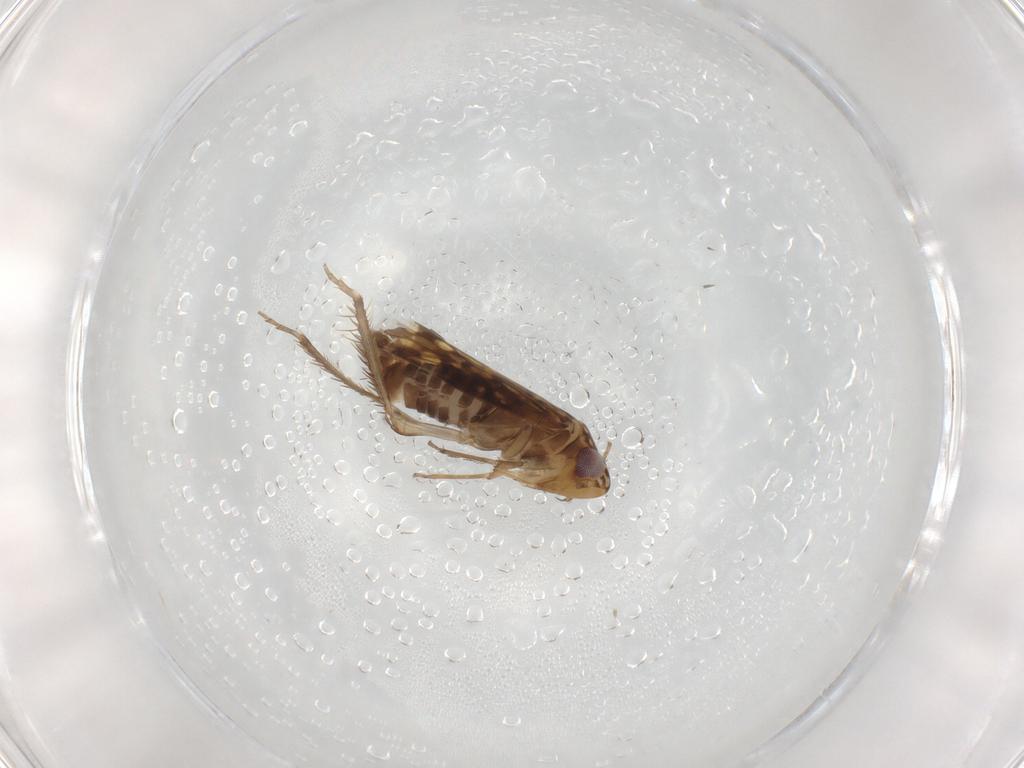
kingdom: Animalia
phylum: Arthropoda
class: Insecta
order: Hemiptera
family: Cicadellidae
